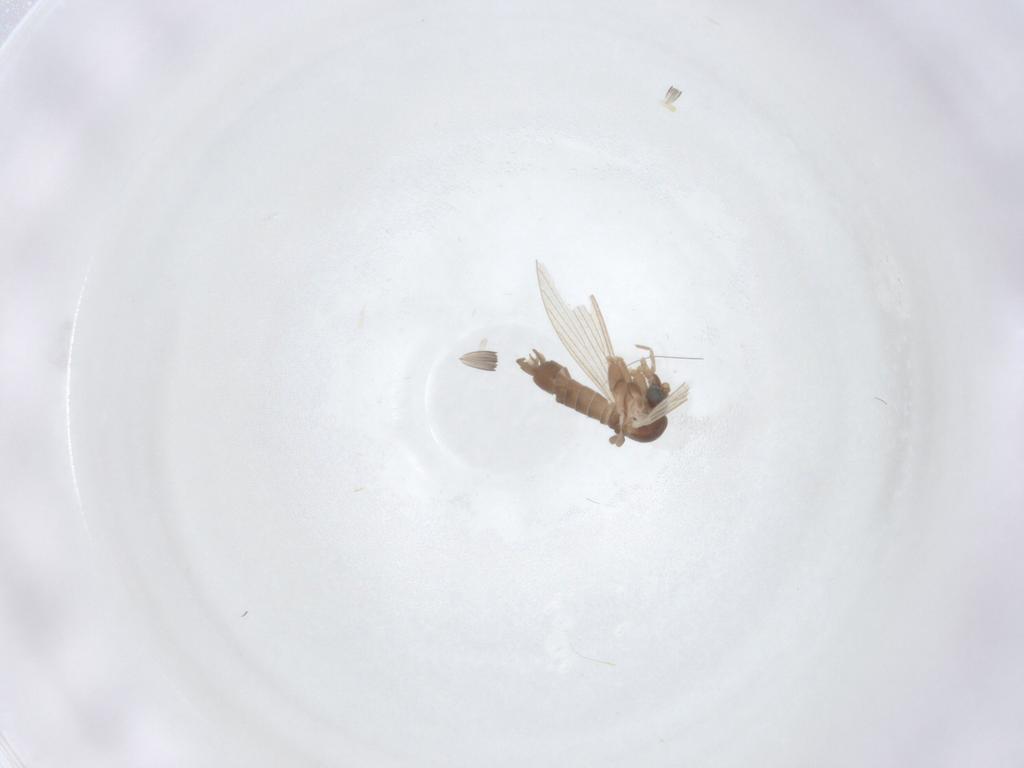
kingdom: Animalia
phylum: Arthropoda
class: Insecta
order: Diptera
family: Psychodidae
